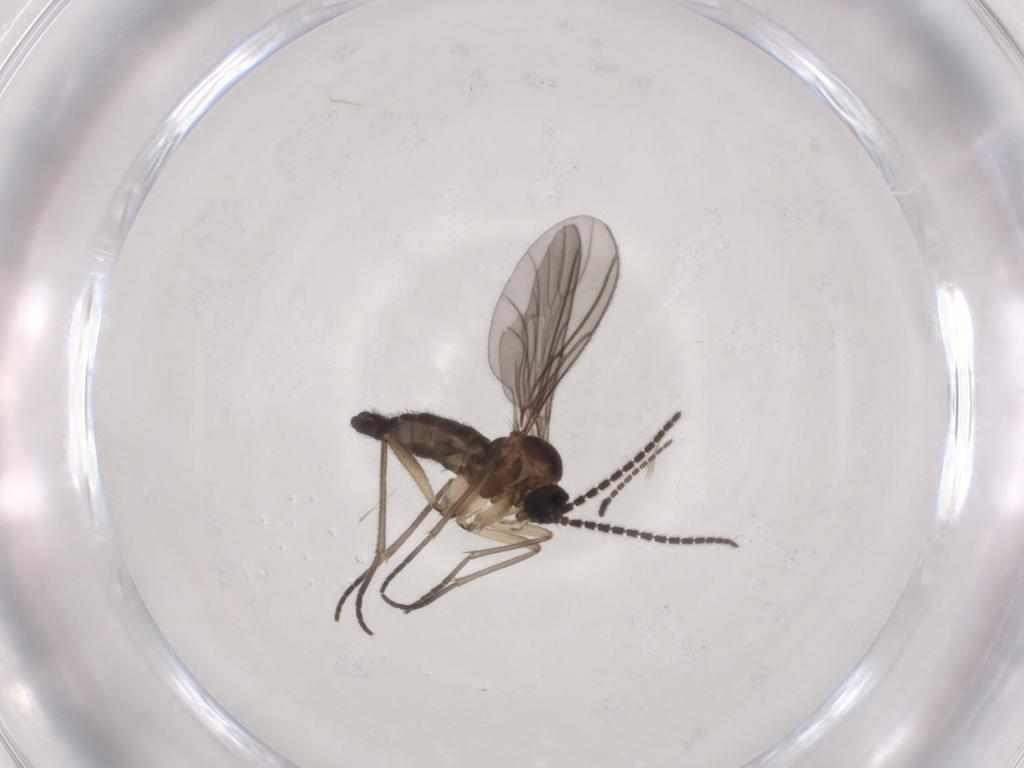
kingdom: Animalia
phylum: Arthropoda
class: Insecta
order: Diptera
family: Sciaridae
